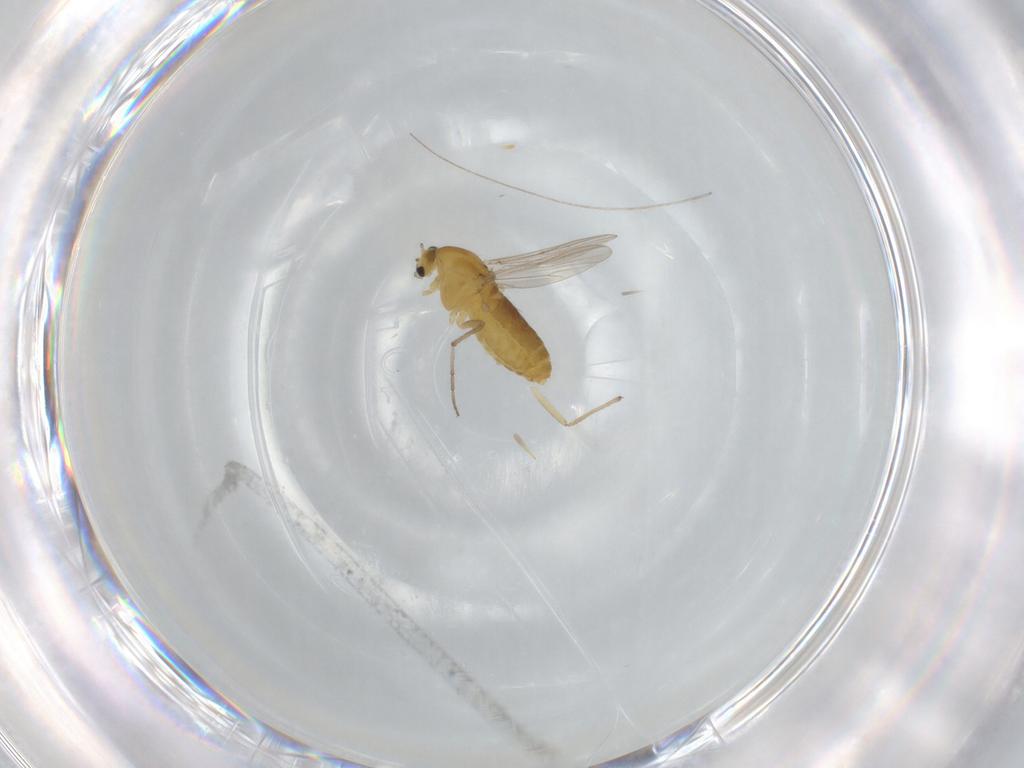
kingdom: Animalia
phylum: Arthropoda
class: Insecta
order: Diptera
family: Chironomidae
